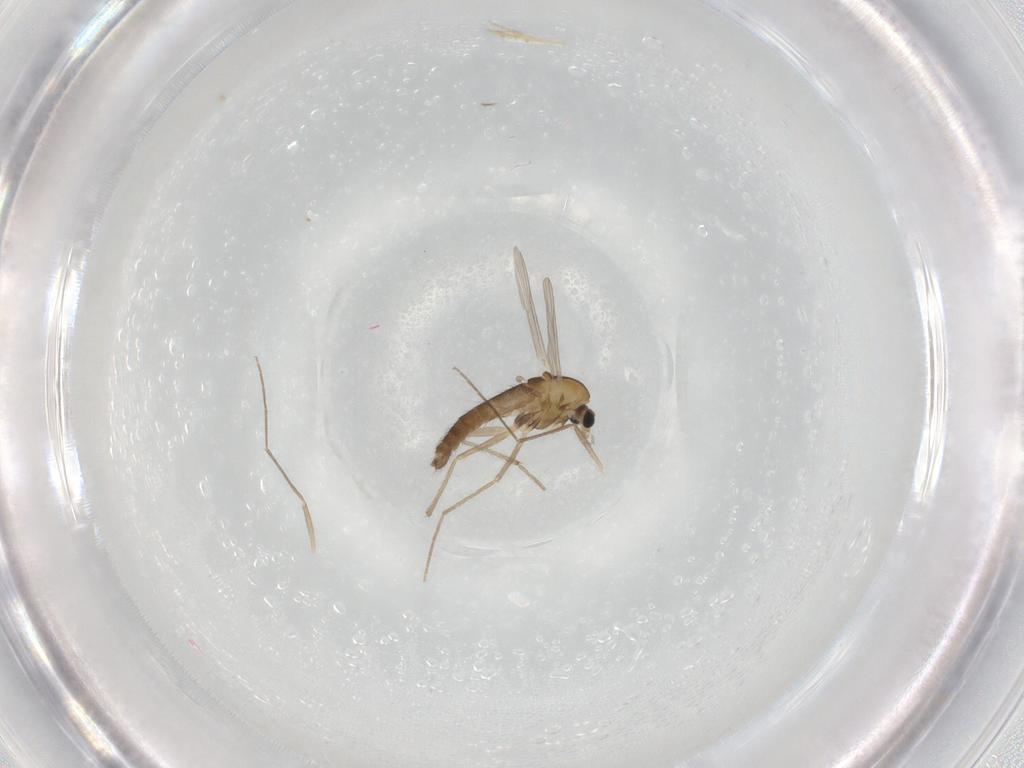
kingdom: Animalia
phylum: Arthropoda
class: Insecta
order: Diptera
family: Chironomidae
